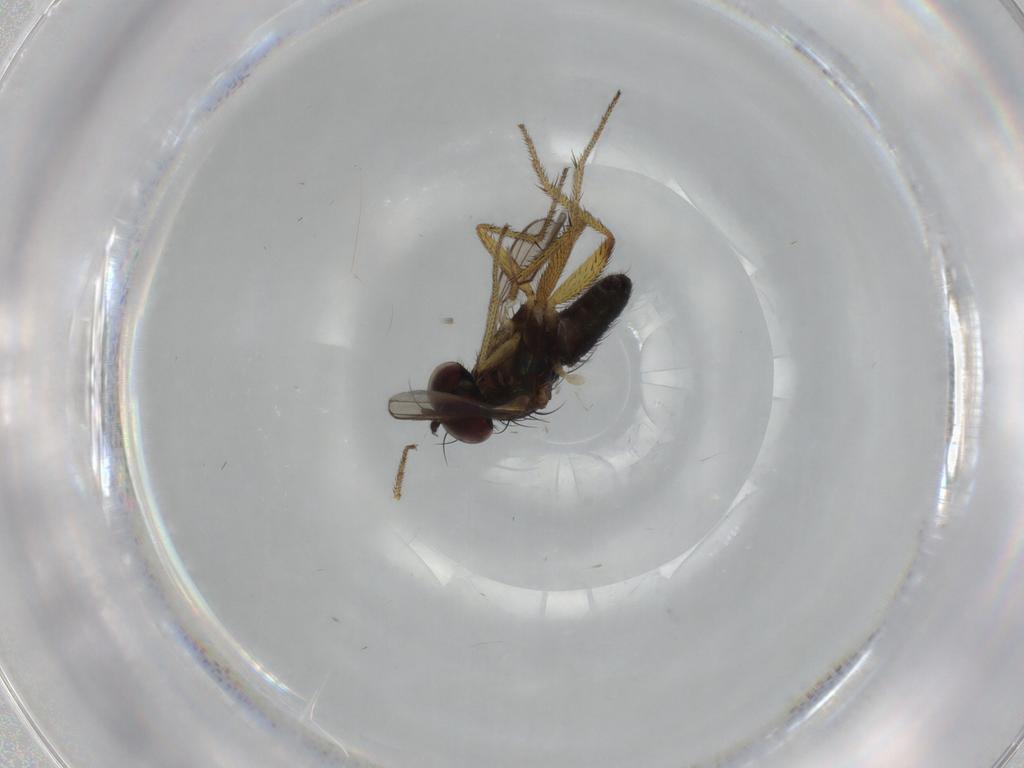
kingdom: Animalia
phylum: Arthropoda
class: Insecta
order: Diptera
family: Dolichopodidae
